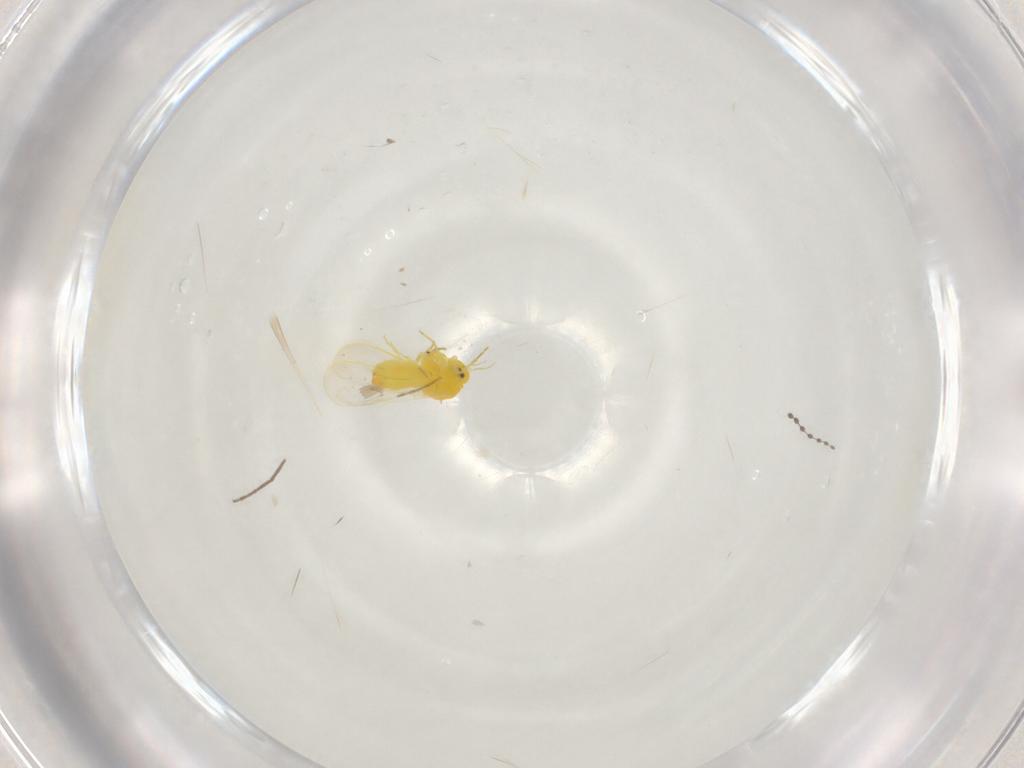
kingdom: Animalia
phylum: Arthropoda
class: Insecta
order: Hemiptera
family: Aleyrodidae
